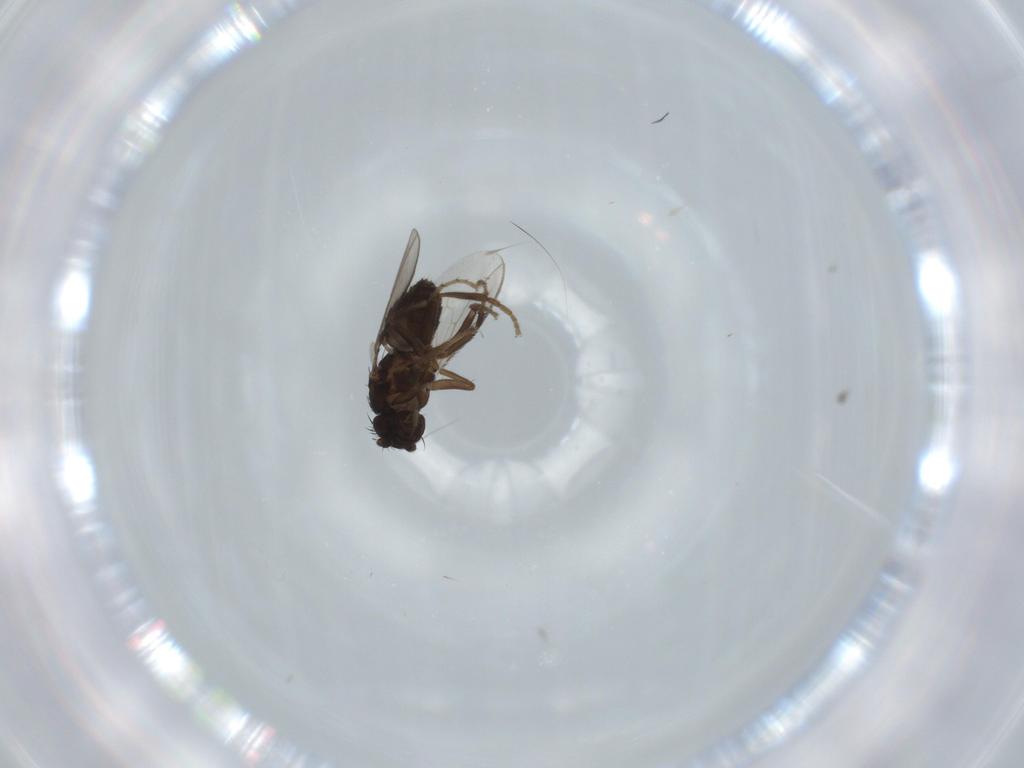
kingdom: Animalia
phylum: Arthropoda
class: Insecta
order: Diptera
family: Sphaeroceridae
